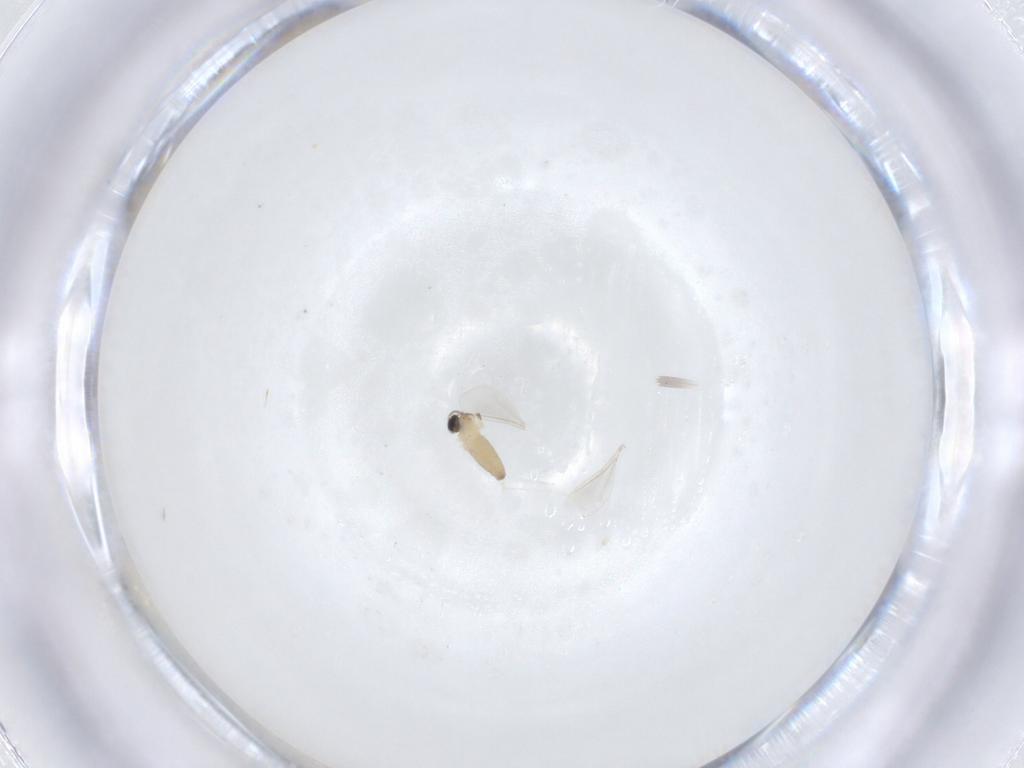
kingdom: Animalia
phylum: Arthropoda
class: Insecta
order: Diptera
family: Cecidomyiidae
